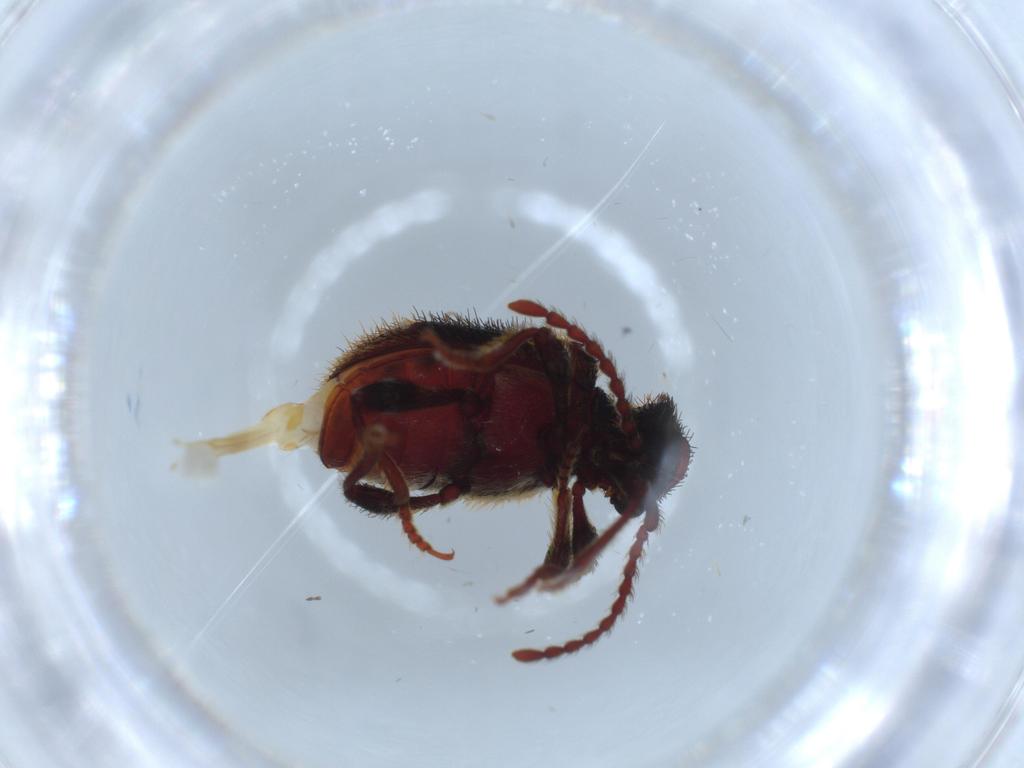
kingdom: Animalia
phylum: Arthropoda
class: Insecta
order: Coleoptera
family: Ptinidae
